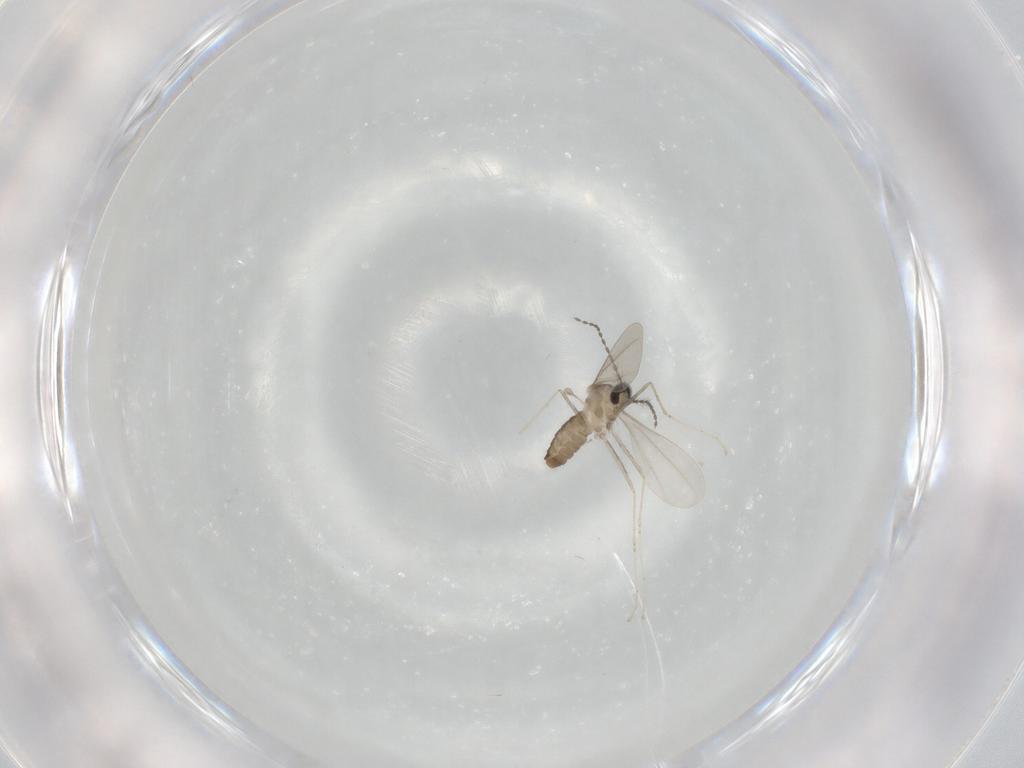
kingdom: Animalia
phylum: Arthropoda
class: Insecta
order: Diptera
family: Cecidomyiidae
